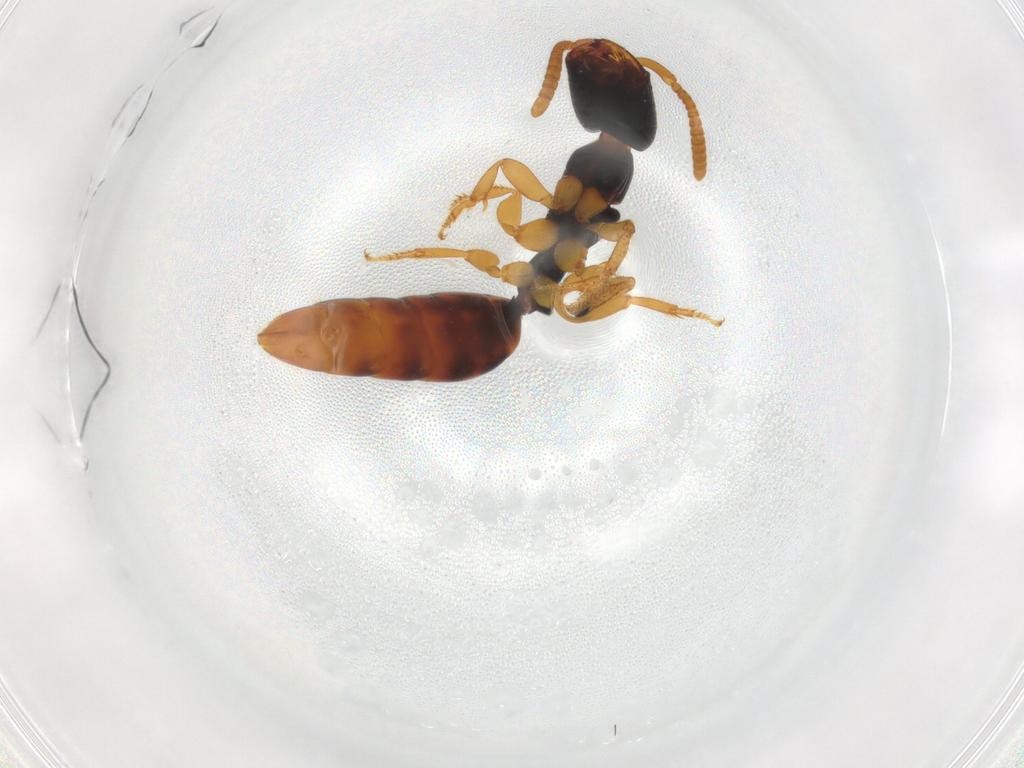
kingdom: Animalia
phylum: Arthropoda
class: Insecta
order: Hymenoptera
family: Bethylidae
